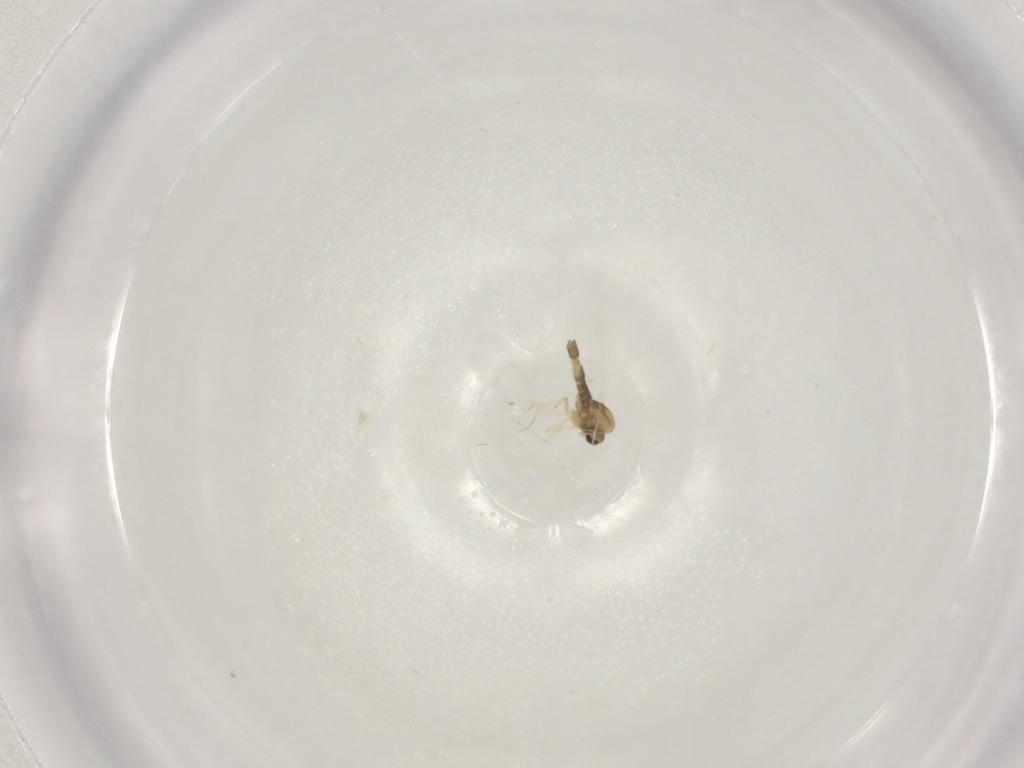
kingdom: Animalia
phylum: Arthropoda
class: Insecta
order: Diptera
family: Chironomidae
